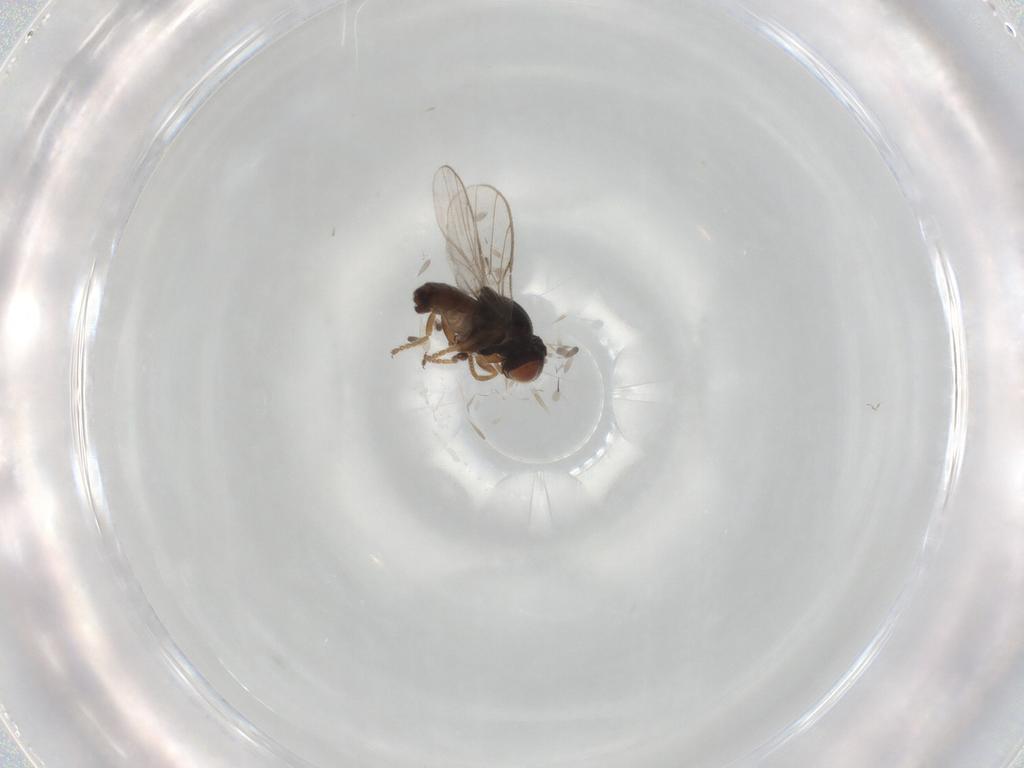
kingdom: Animalia
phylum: Arthropoda
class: Insecta
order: Diptera
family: Chloropidae
